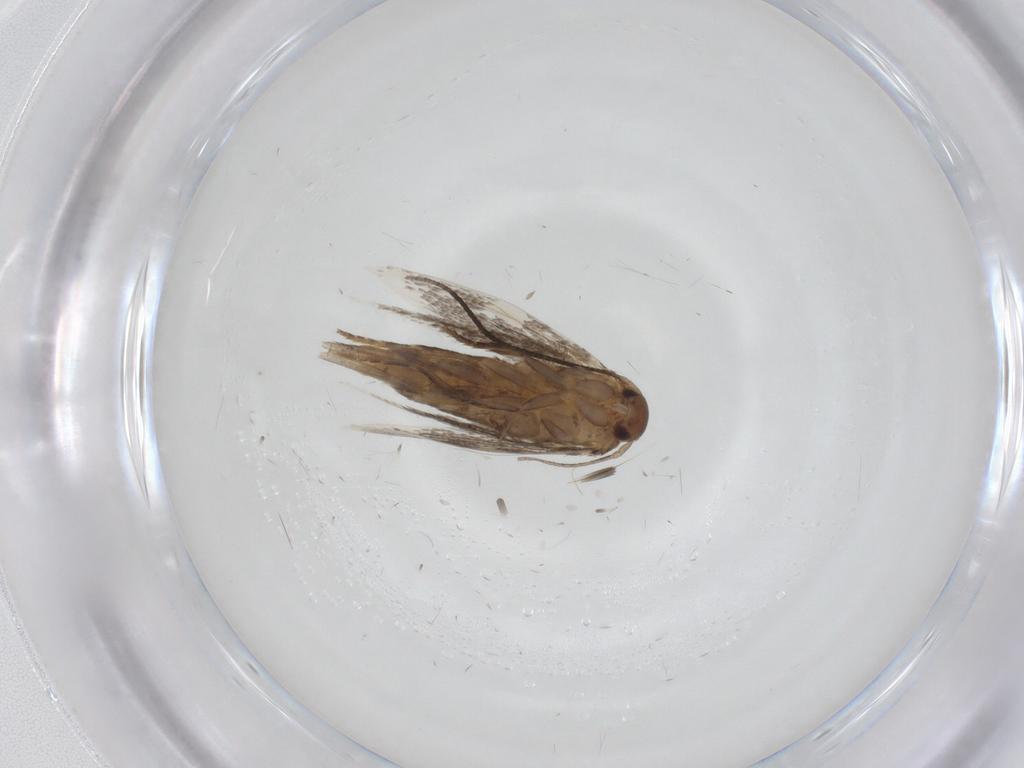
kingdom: Animalia
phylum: Arthropoda
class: Insecta
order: Lepidoptera
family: Elachistidae
